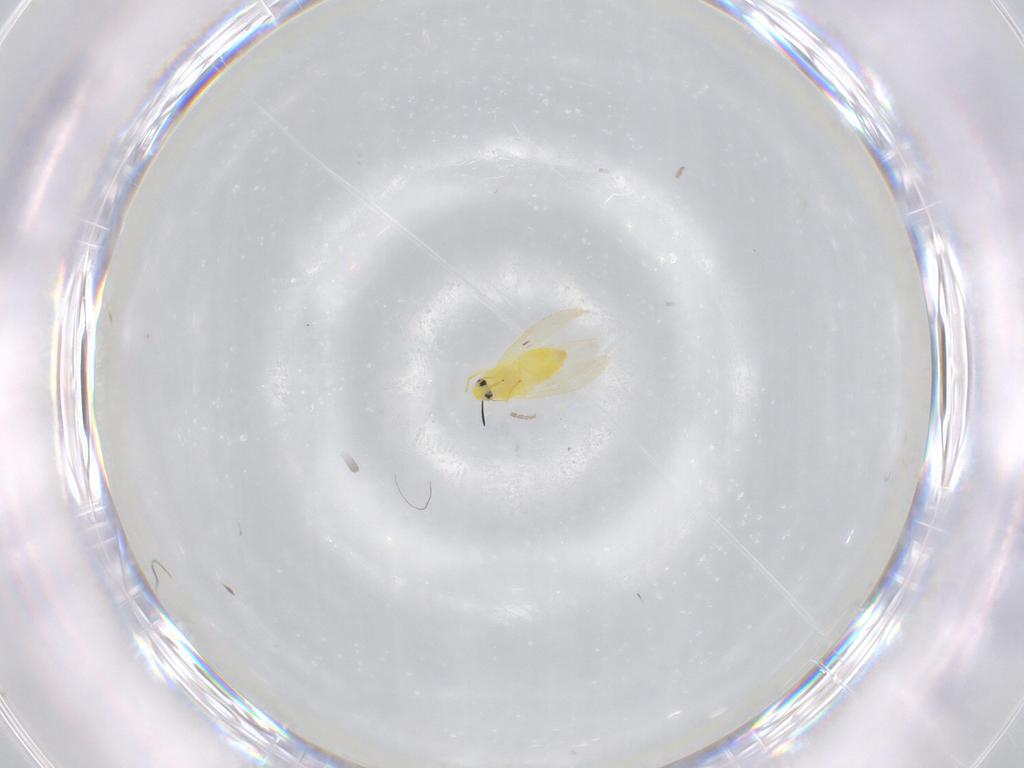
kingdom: Animalia
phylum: Arthropoda
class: Insecta
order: Hemiptera
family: Aleyrodidae
